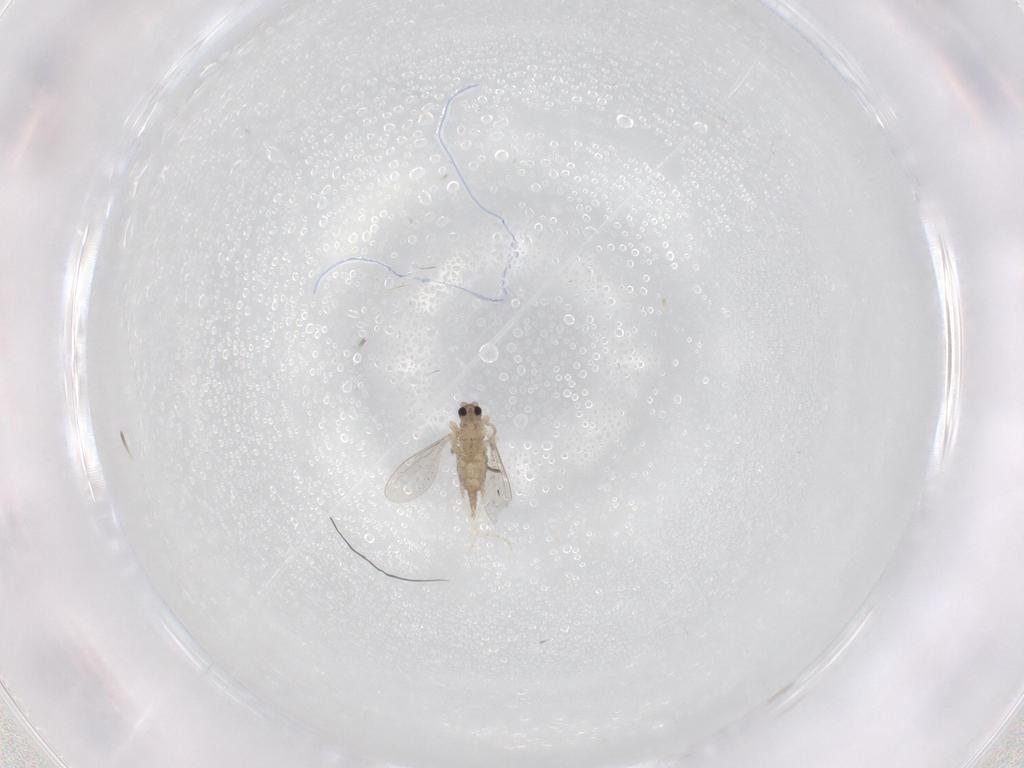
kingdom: Animalia
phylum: Arthropoda
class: Insecta
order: Diptera
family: Cecidomyiidae
